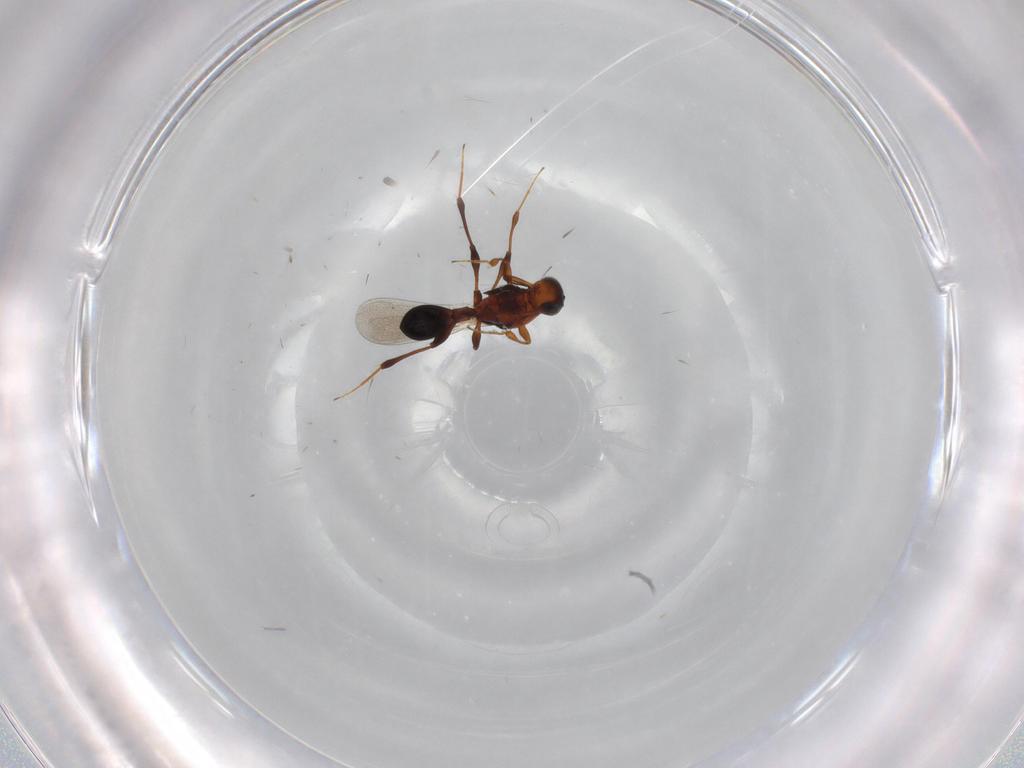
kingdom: Animalia
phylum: Arthropoda
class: Insecta
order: Hymenoptera
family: Platygastridae
